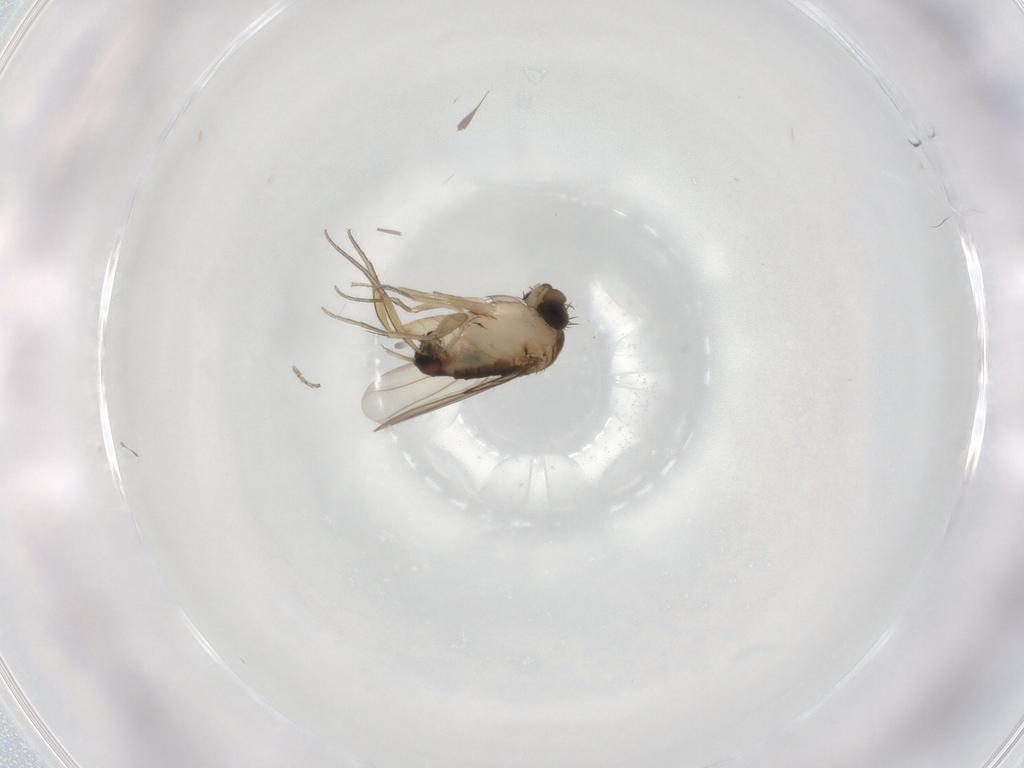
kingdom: Animalia
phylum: Arthropoda
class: Insecta
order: Diptera
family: Phoridae
